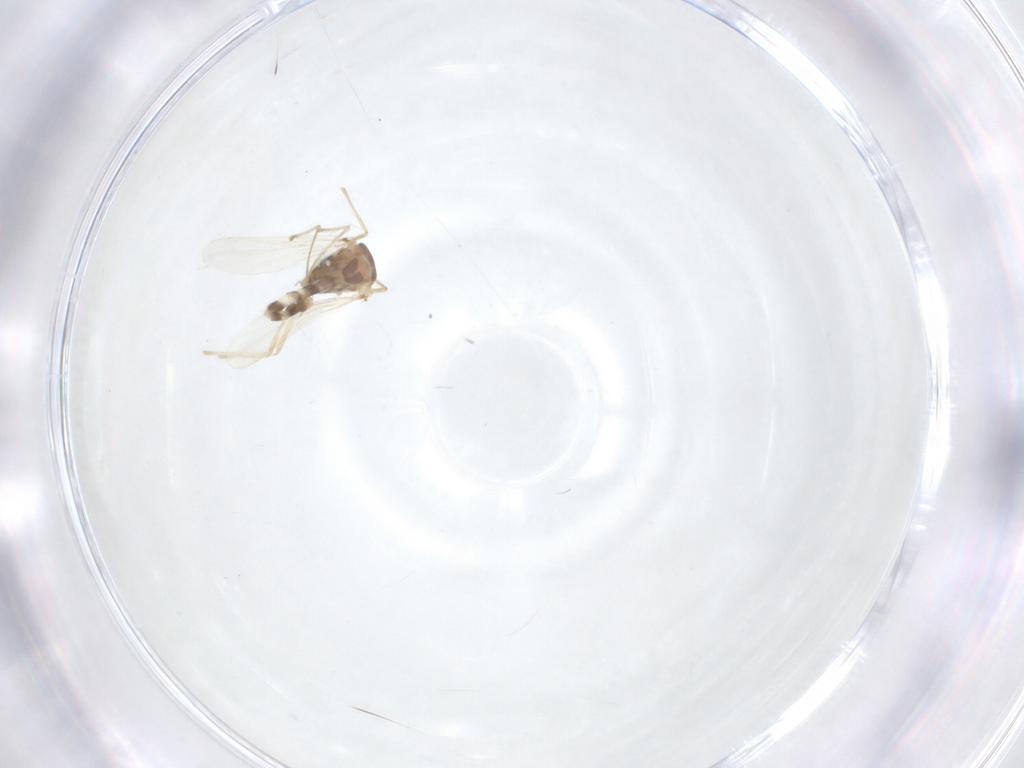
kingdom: Animalia
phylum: Arthropoda
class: Insecta
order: Diptera
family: Chironomidae
